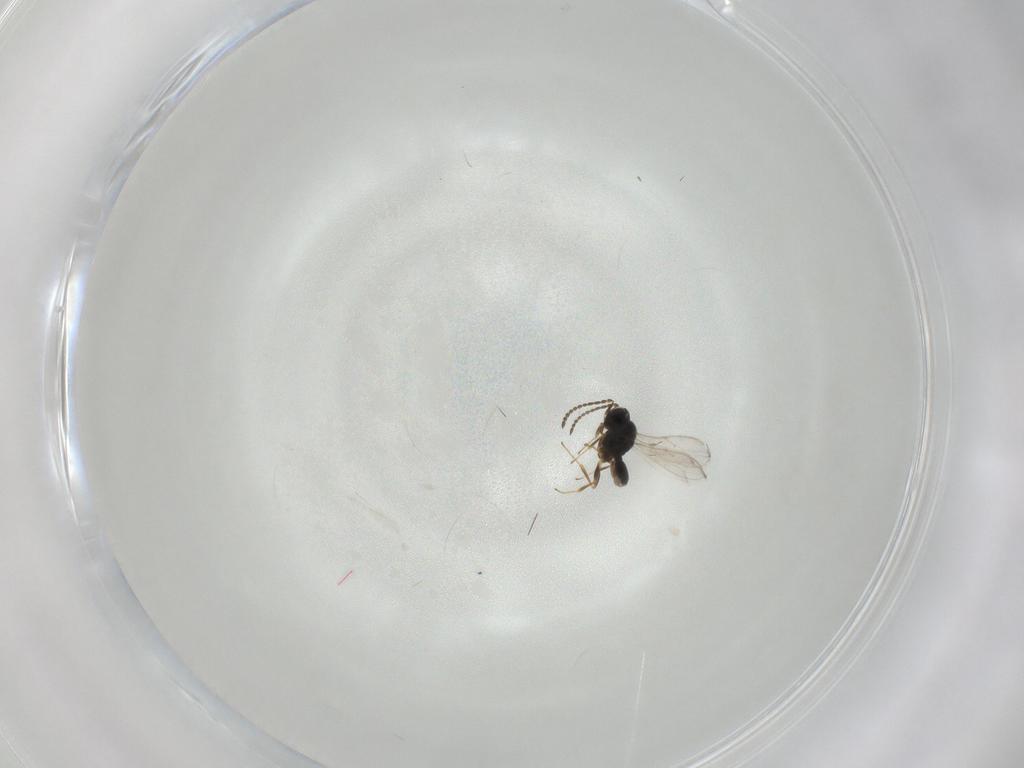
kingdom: Animalia
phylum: Arthropoda
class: Insecta
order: Hymenoptera
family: Scelionidae
